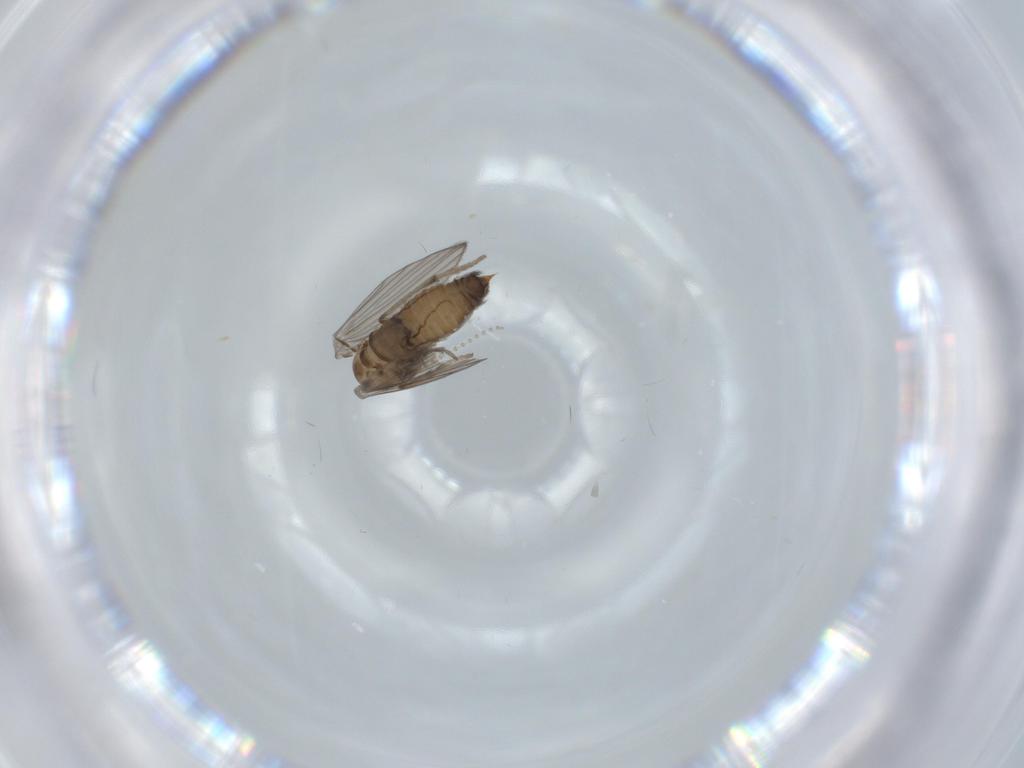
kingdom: Animalia
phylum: Arthropoda
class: Insecta
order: Diptera
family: Psychodidae
